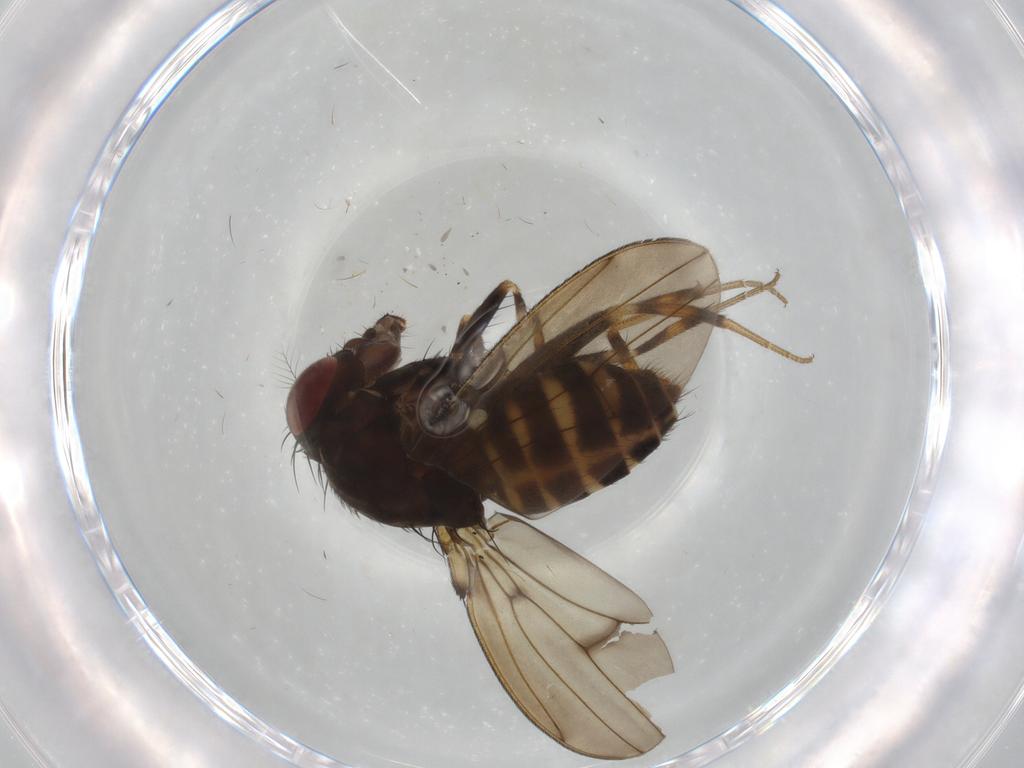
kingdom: Animalia
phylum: Arthropoda
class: Insecta
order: Diptera
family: Drosophilidae
